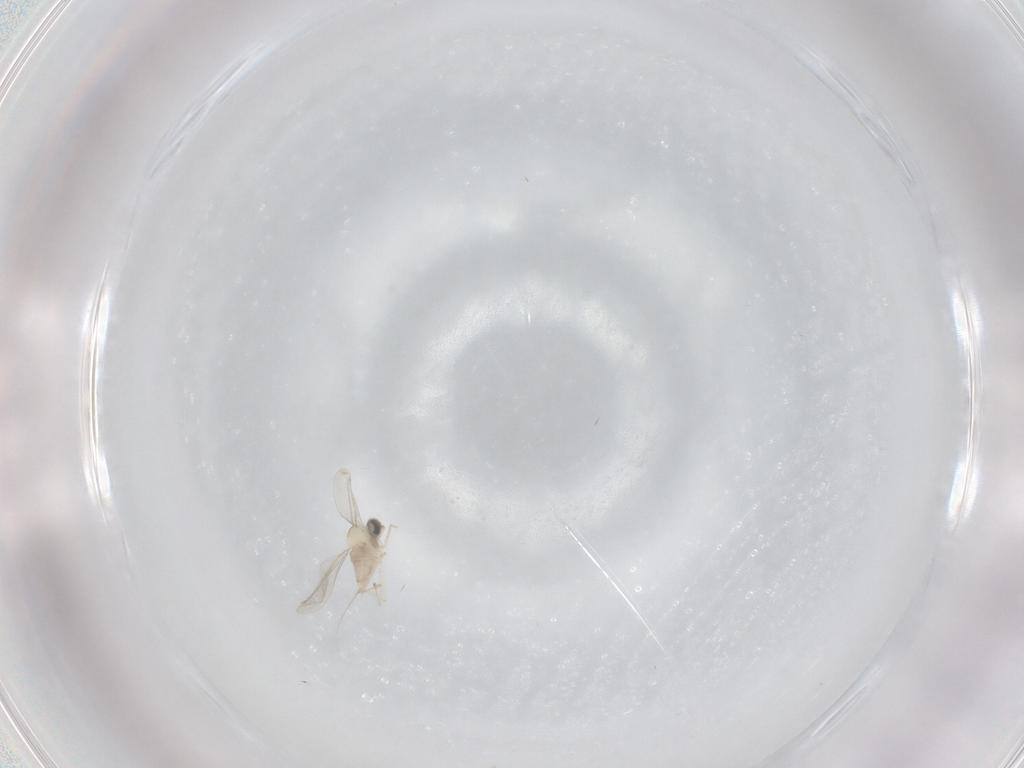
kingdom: Animalia
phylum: Arthropoda
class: Insecta
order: Diptera
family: Cecidomyiidae
